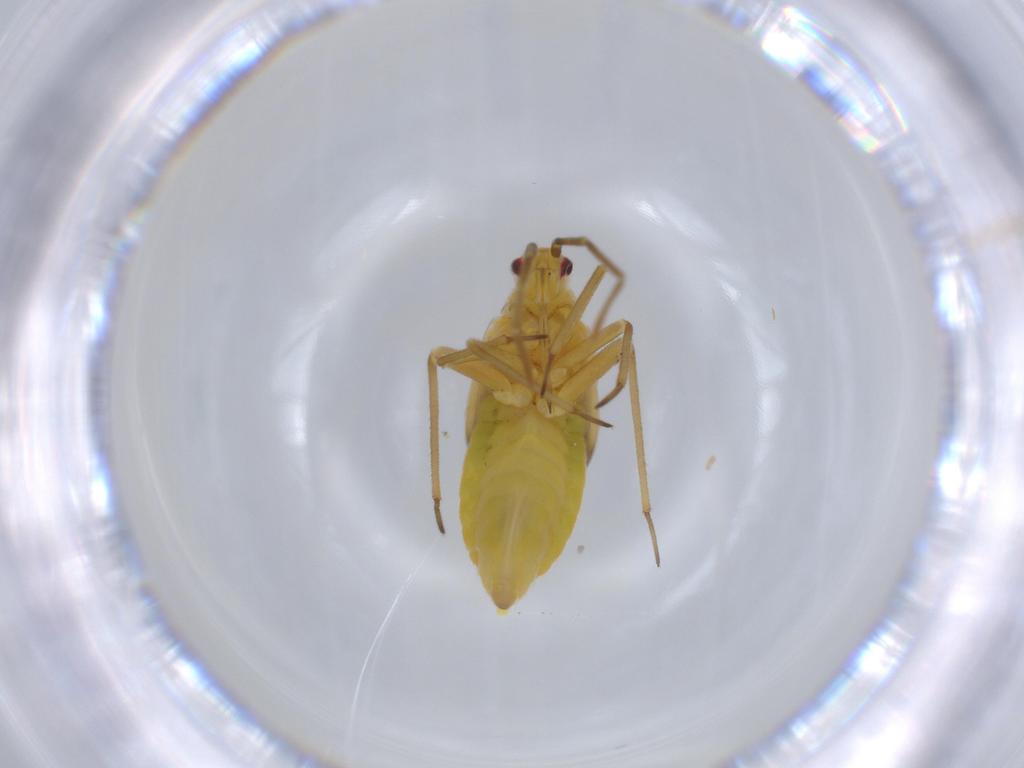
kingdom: Animalia
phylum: Arthropoda
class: Insecta
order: Hemiptera
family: Miridae
